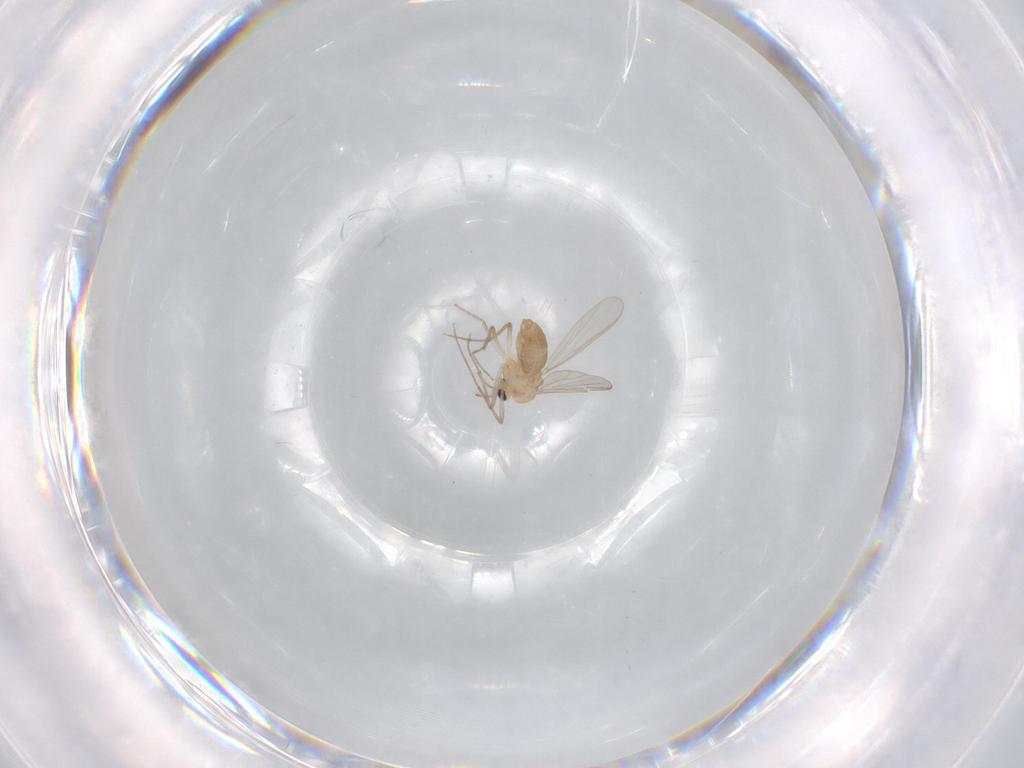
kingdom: Animalia
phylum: Arthropoda
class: Insecta
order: Diptera
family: Chironomidae
